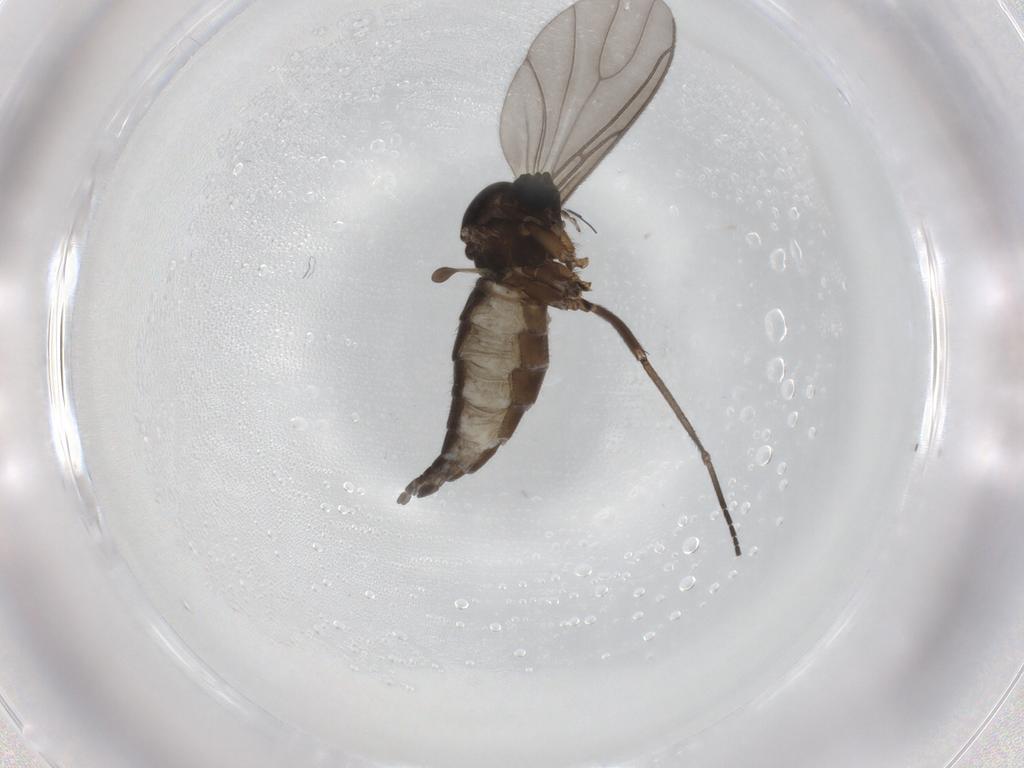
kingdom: Animalia
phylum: Arthropoda
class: Insecta
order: Diptera
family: Sciaridae
